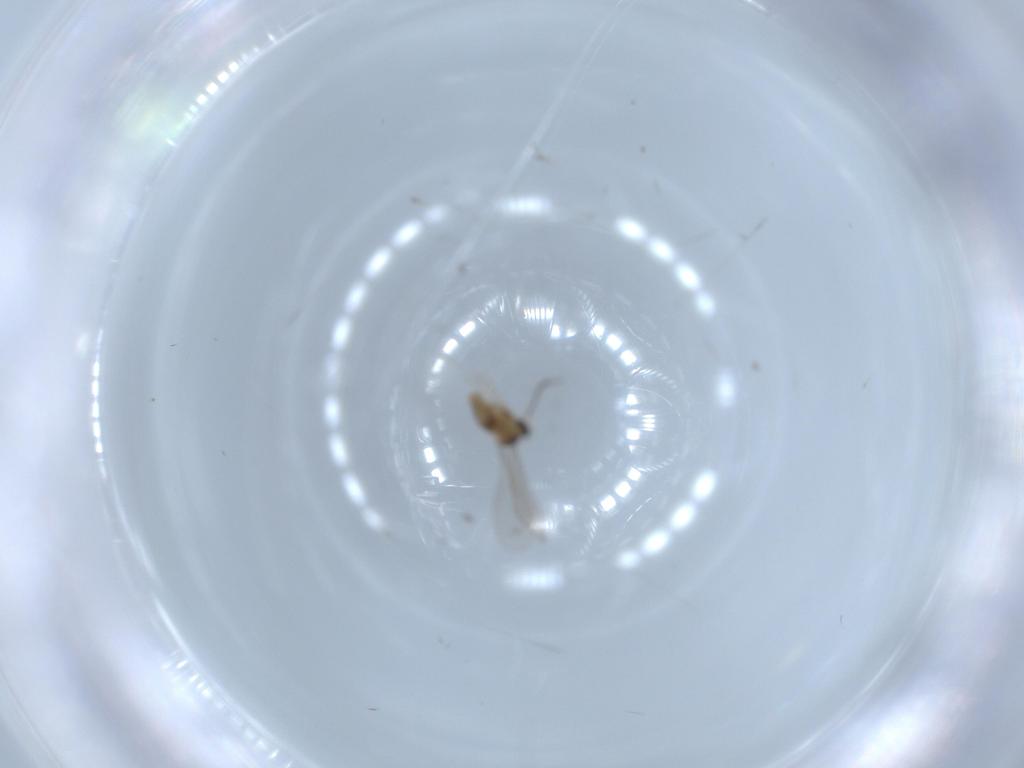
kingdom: Animalia
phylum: Arthropoda
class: Insecta
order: Diptera
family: Cecidomyiidae
